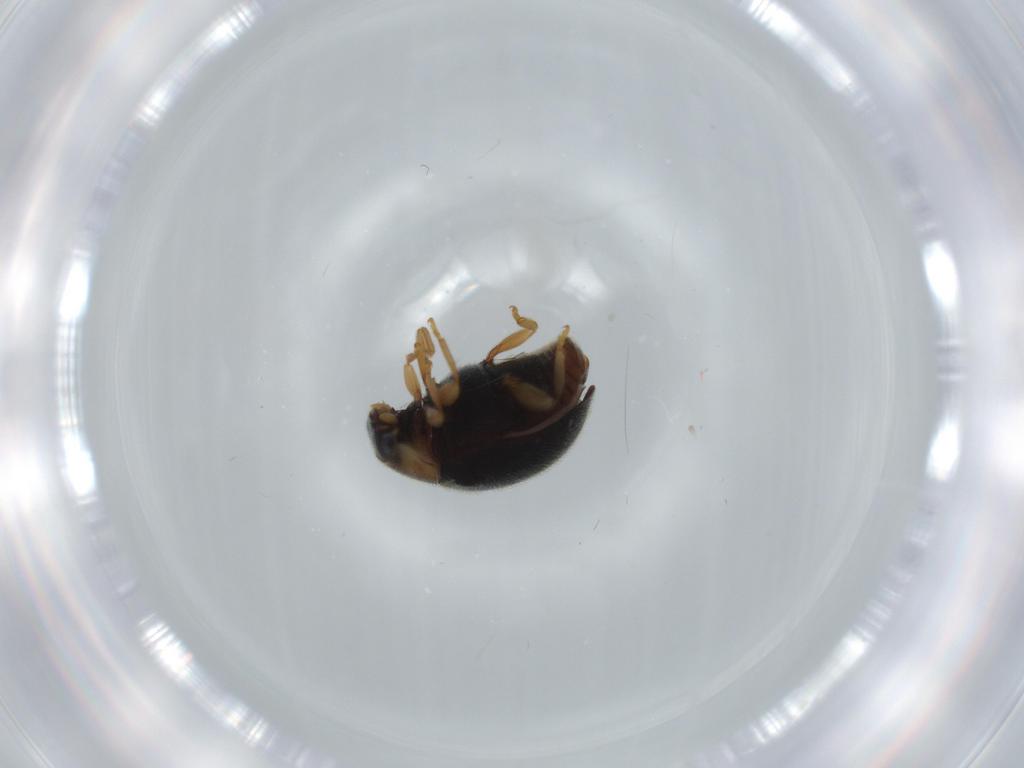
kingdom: Animalia
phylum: Arthropoda
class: Insecta
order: Coleoptera
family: Coccinellidae
